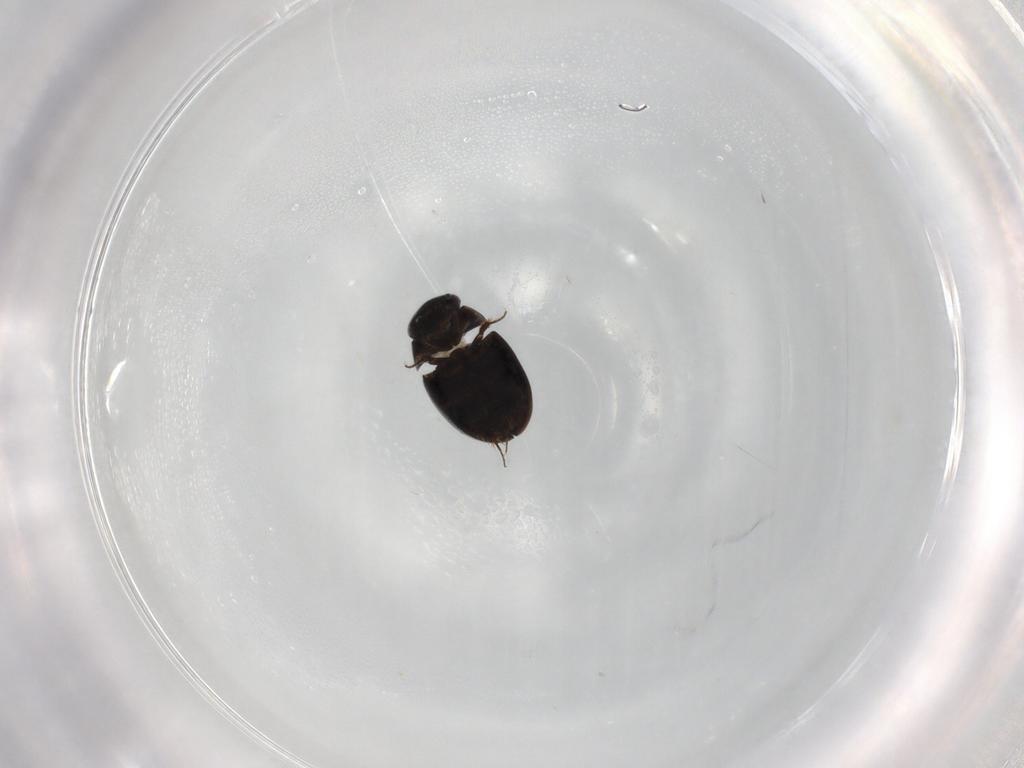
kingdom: Animalia
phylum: Arthropoda
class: Insecta
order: Coleoptera
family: Hydrophilidae
